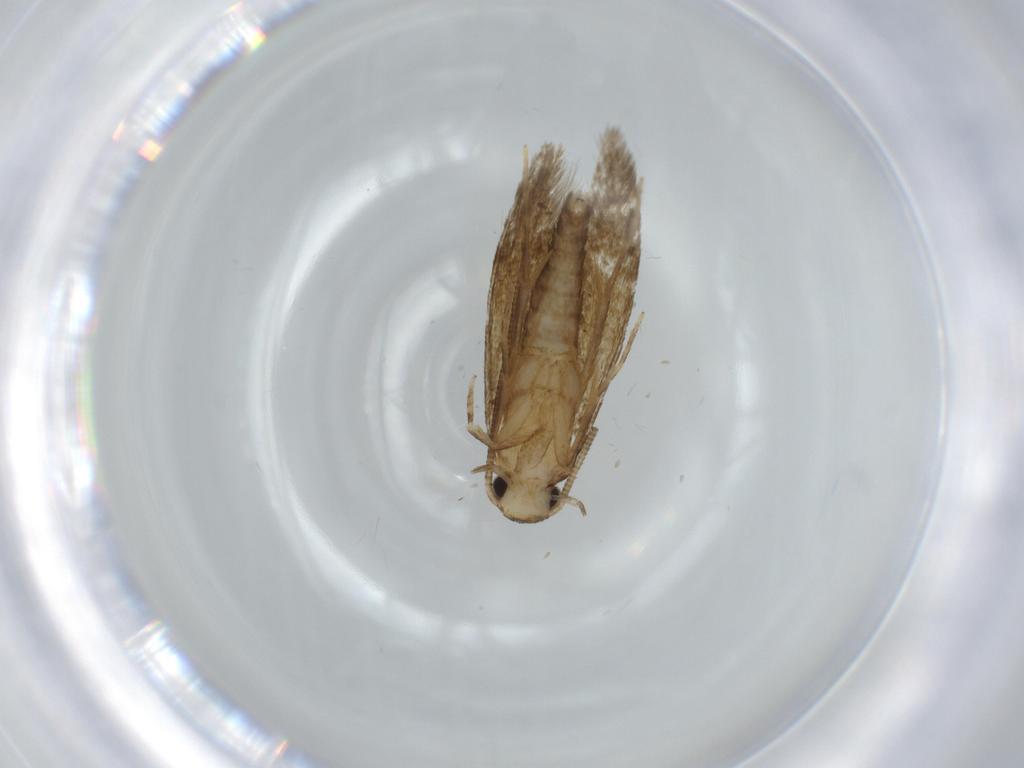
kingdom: Animalia
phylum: Arthropoda
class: Insecta
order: Lepidoptera
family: Tineidae
